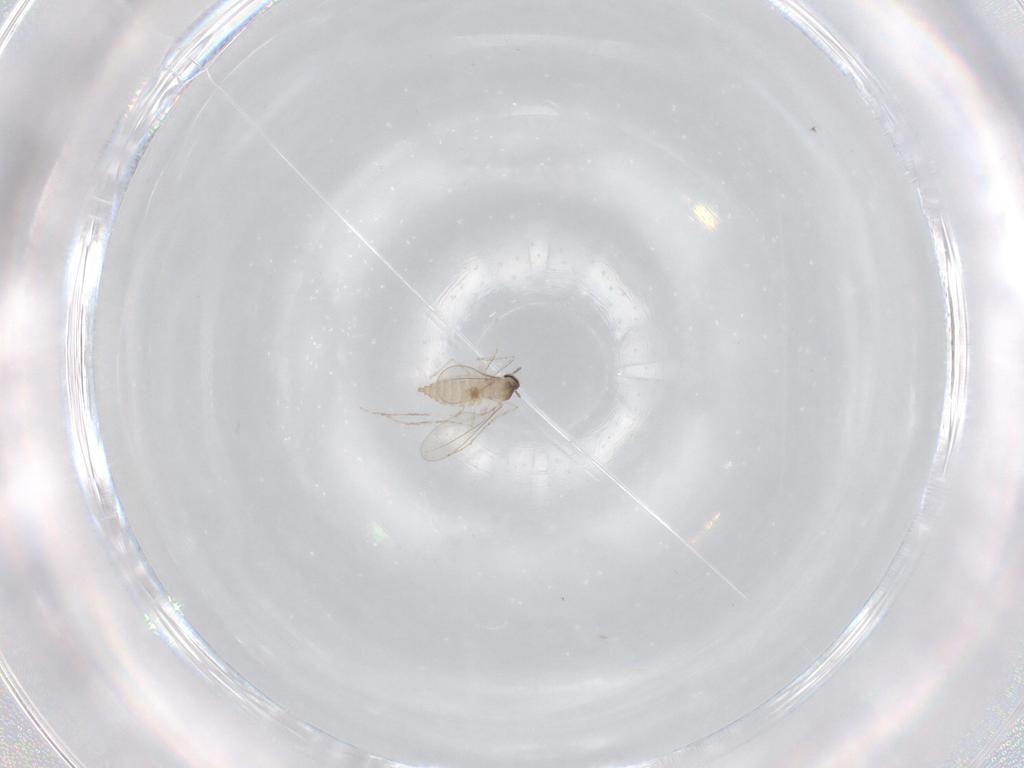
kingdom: Animalia
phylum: Arthropoda
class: Insecta
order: Diptera
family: Cecidomyiidae
